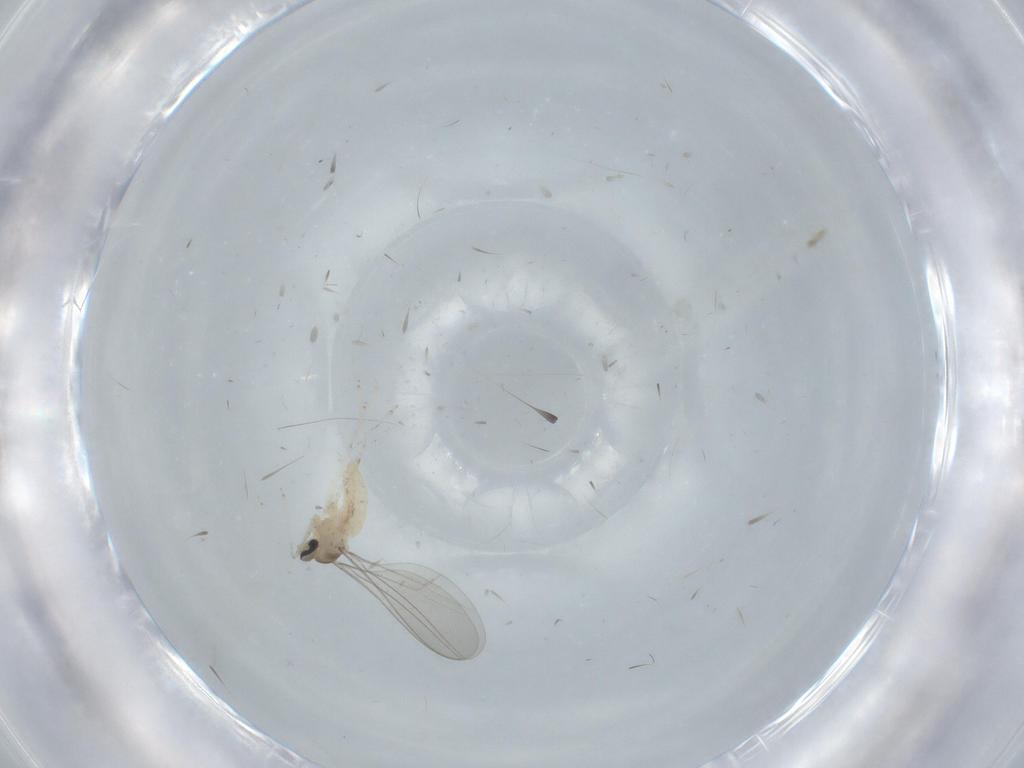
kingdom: Animalia
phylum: Arthropoda
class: Insecta
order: Diptera
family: Cecidomyiidae
